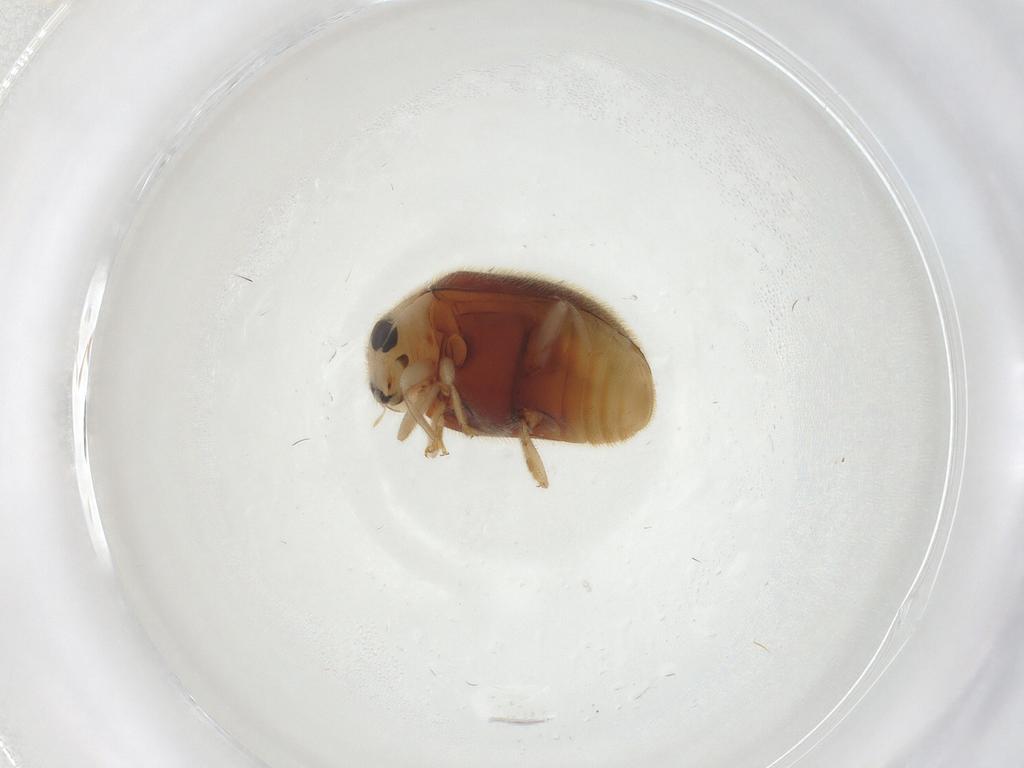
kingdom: Animalia
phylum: Arthropoda
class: Insecta
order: Coleoptera
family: Coccinellidae
